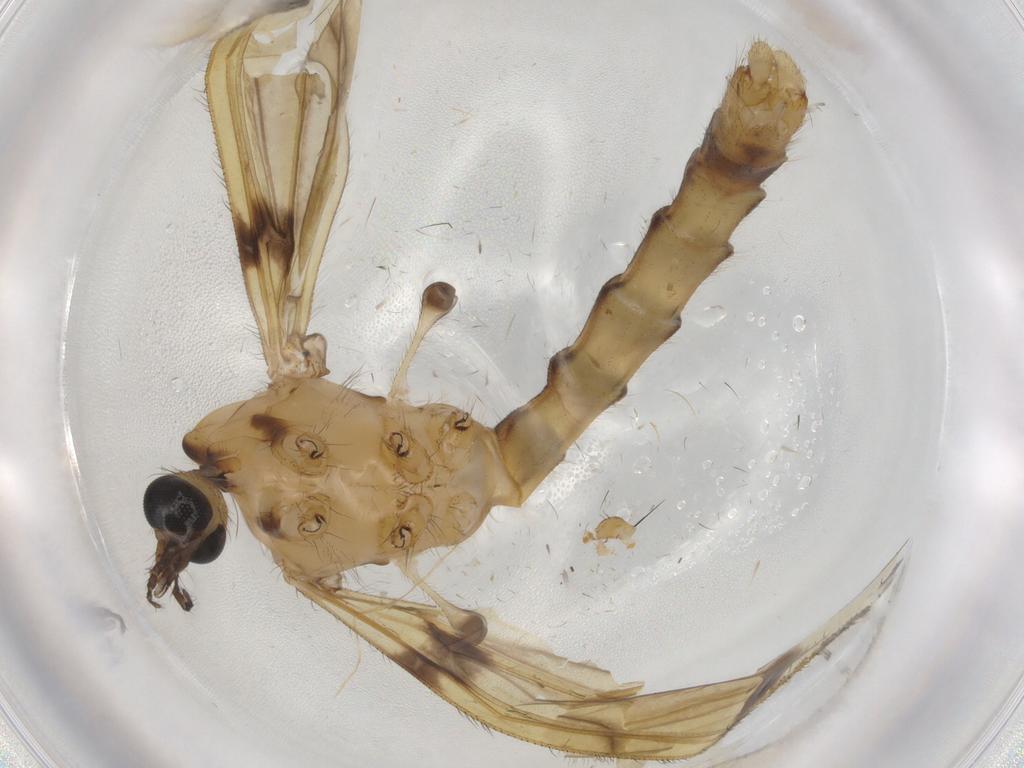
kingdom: Animalia
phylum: Arthropoda
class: Insecta
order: Diptera
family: Tipulidae
